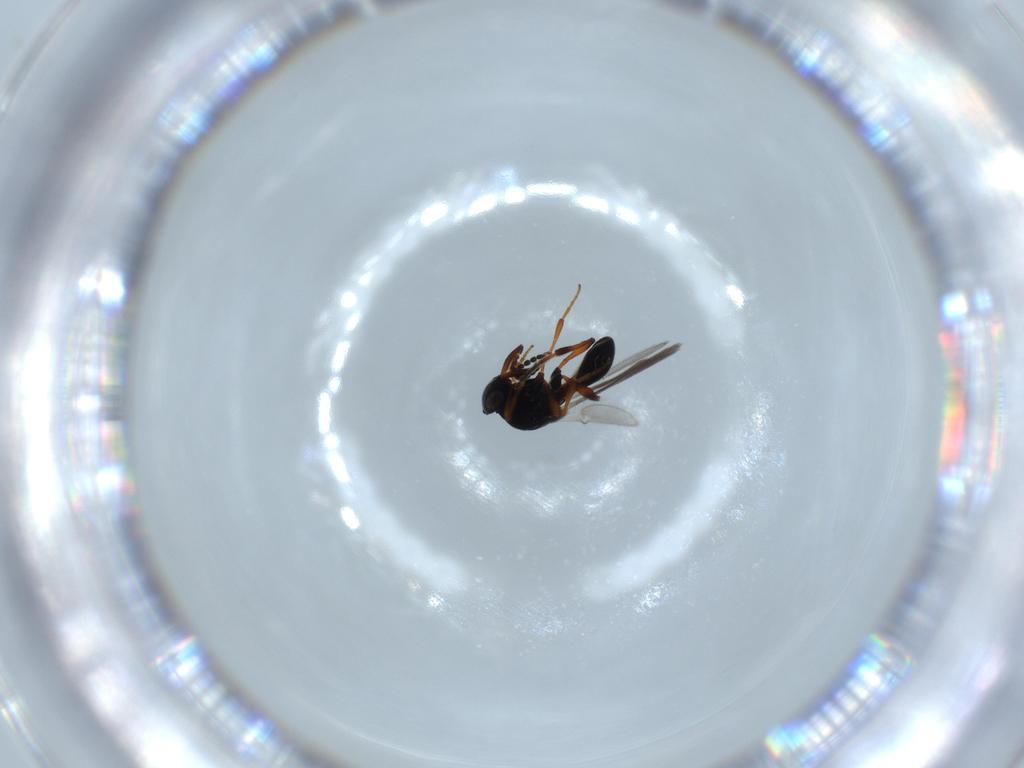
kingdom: Animalia
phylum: Arthropoda
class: Insecta
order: Hymenoptera
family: Platygastridae
